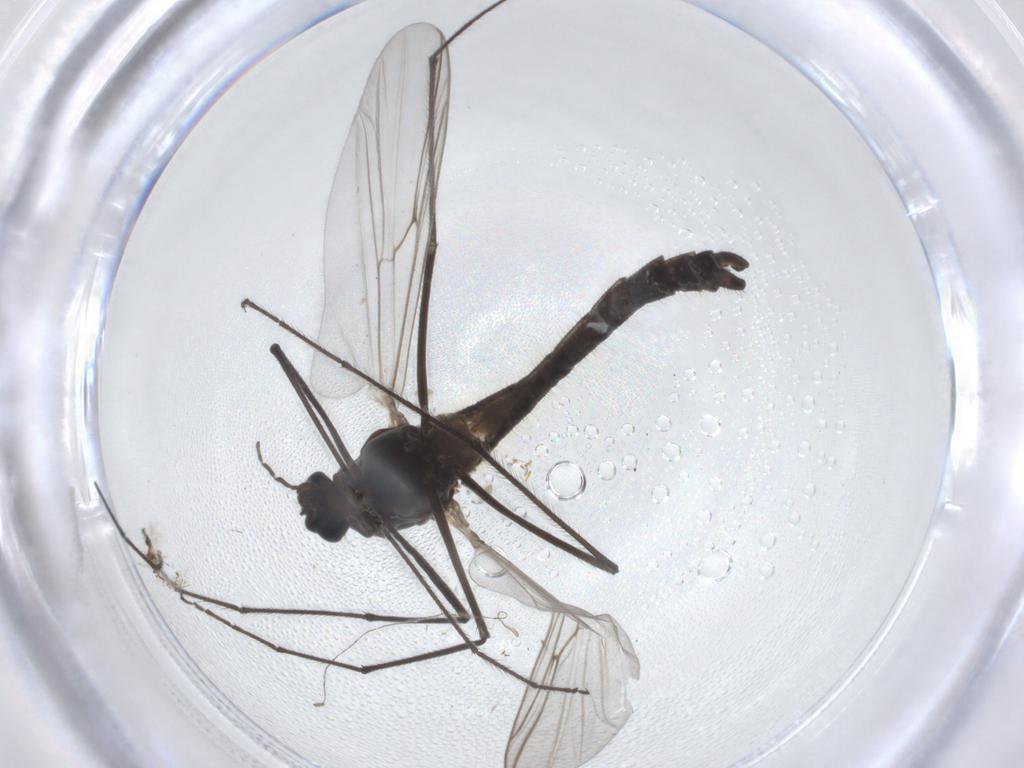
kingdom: Animalia
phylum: Arthropoda
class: Insecta
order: Diptera
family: Chironomidae
